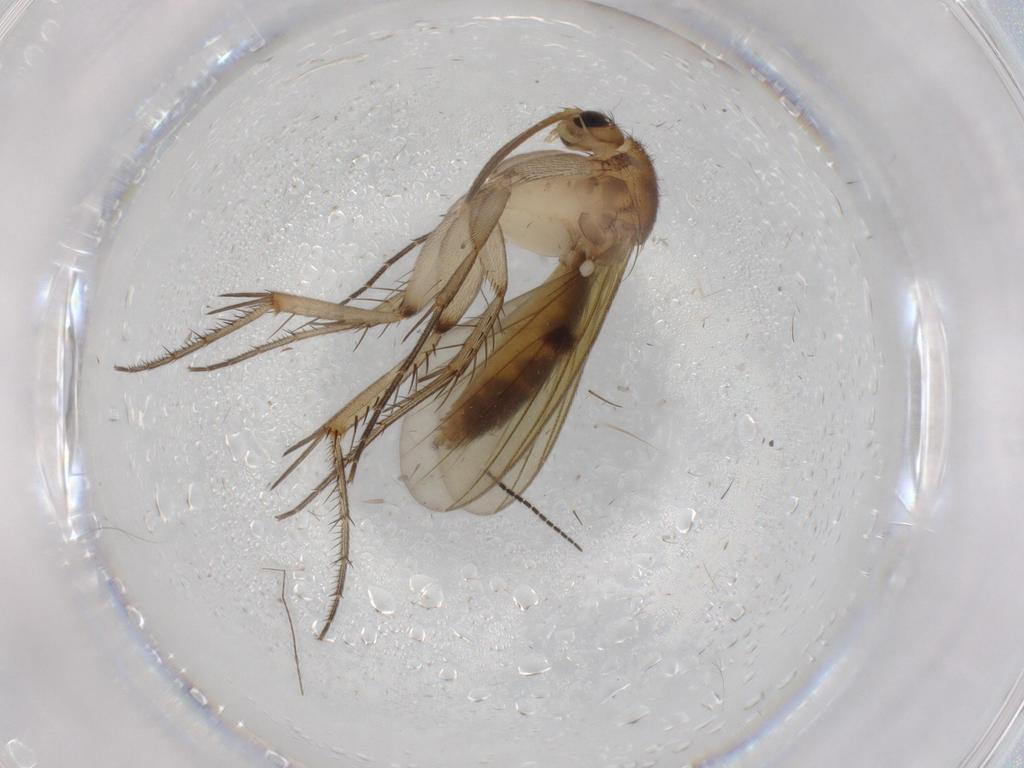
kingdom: Animalia
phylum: Arthropoda
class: Insecta
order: Diptera
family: Mycetophilidae
